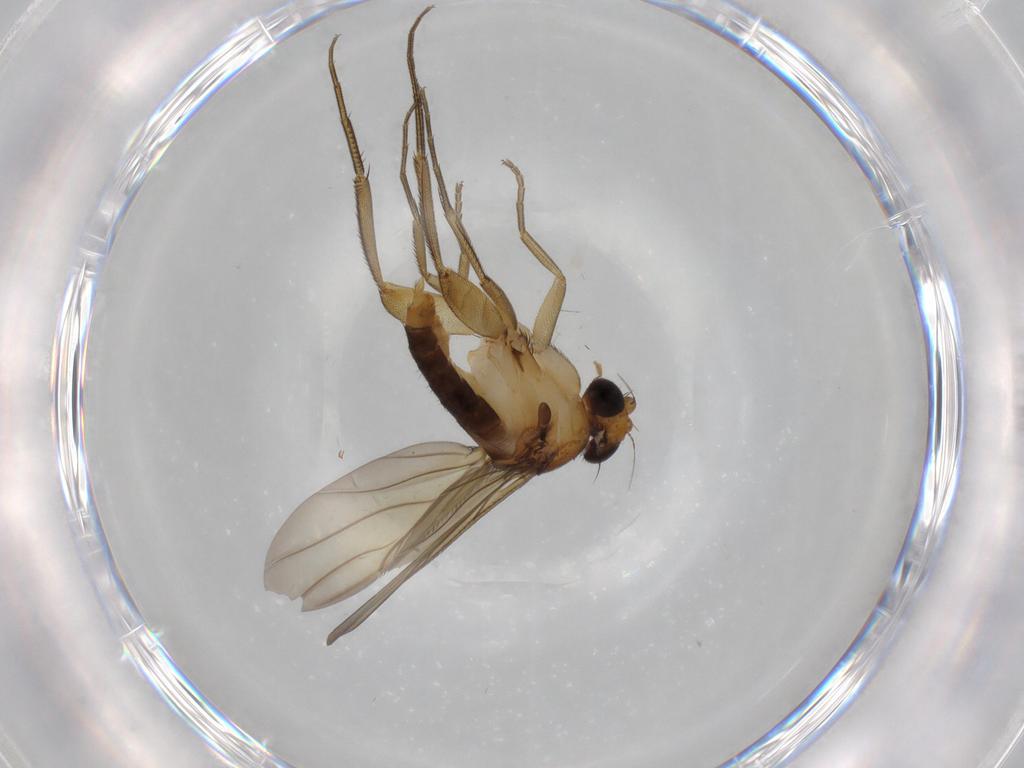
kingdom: Animalia
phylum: Arthropoda
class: Insecta
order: Diptera
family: Phoridae
